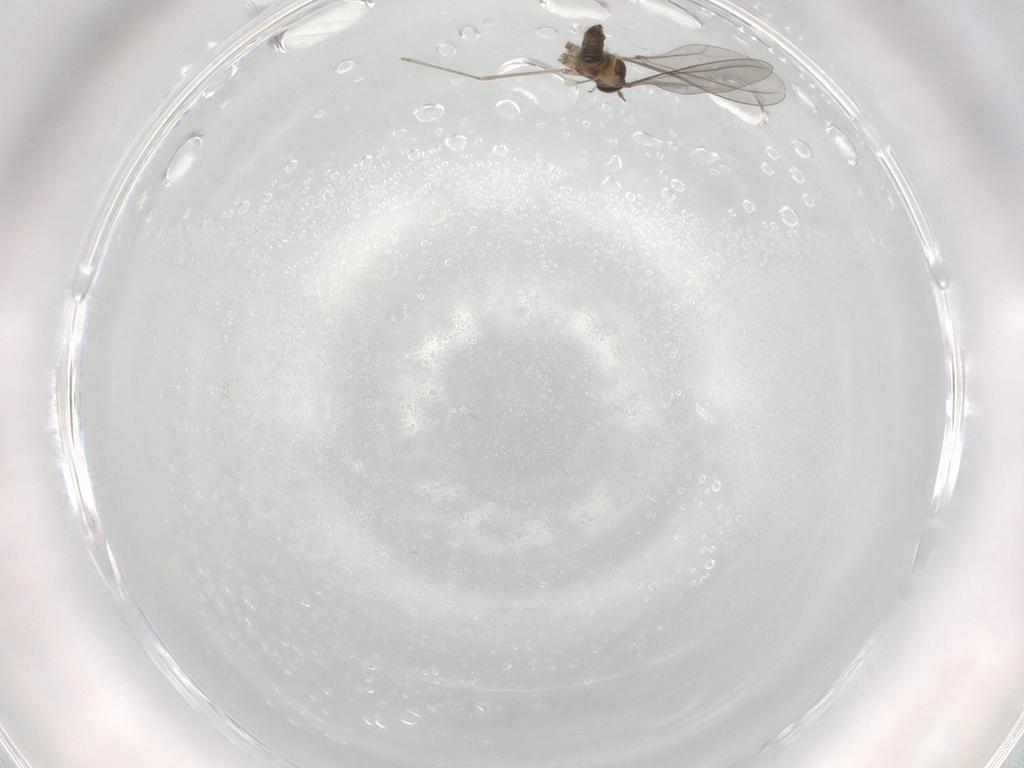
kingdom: Animalia
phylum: Arthropoda
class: Insecta
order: Diptera
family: Cecidomyiidae
